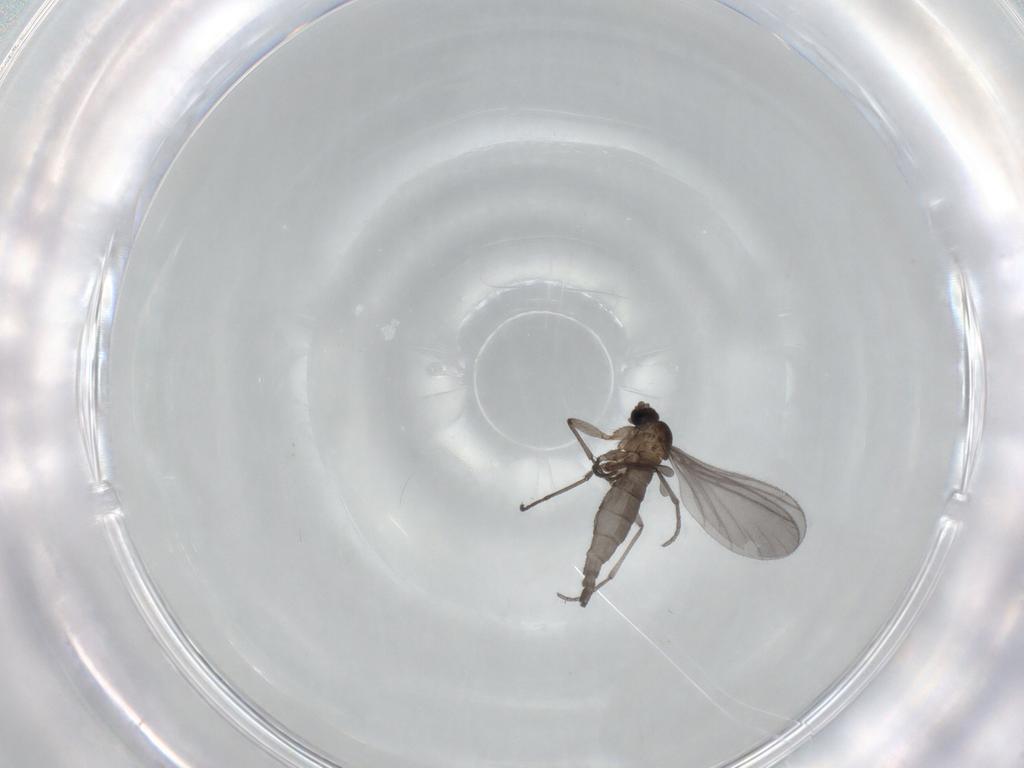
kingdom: Animalia
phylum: Arthropoda
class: Insecta
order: Diptera
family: Sciaridae
